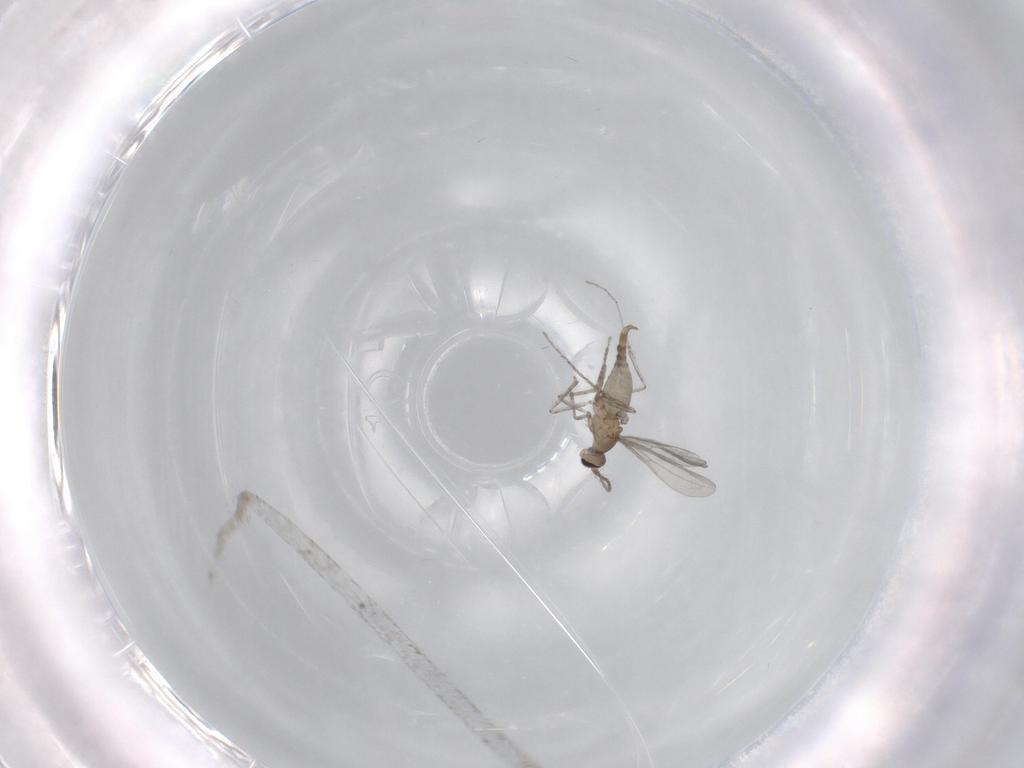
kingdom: Animalia
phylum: Arthropoda
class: Insecta
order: Diptera
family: Cecidomyiidae
